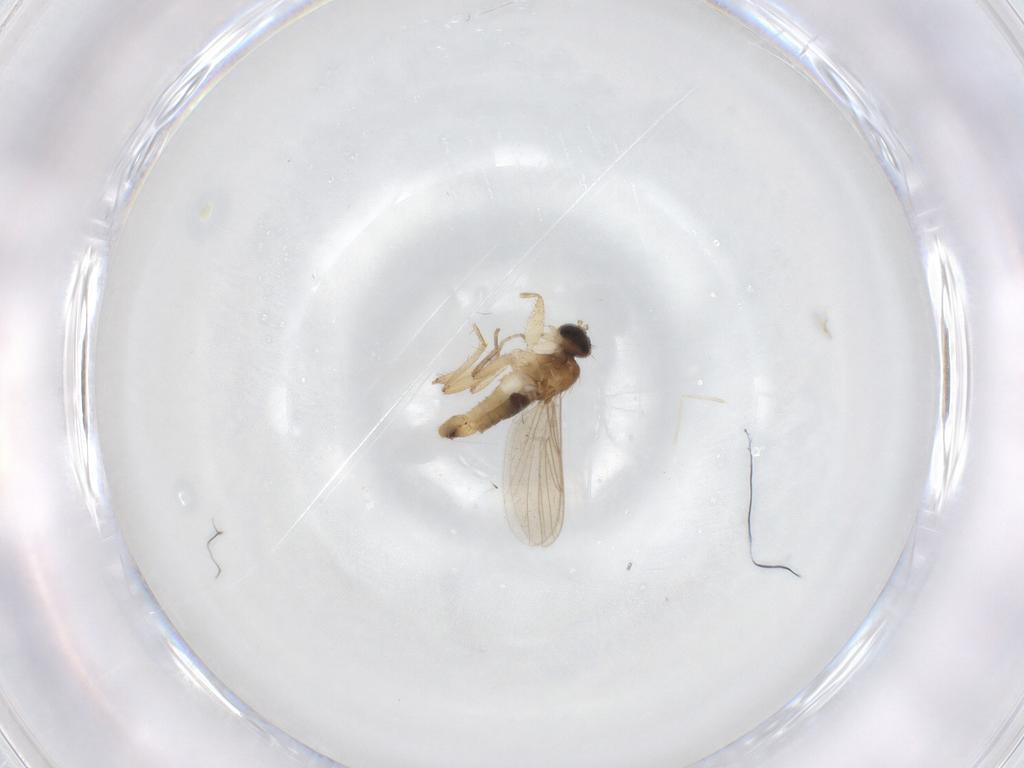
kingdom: Animalia
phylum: Arthropoda
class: Insecta
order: Diptera
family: Hybotidae
